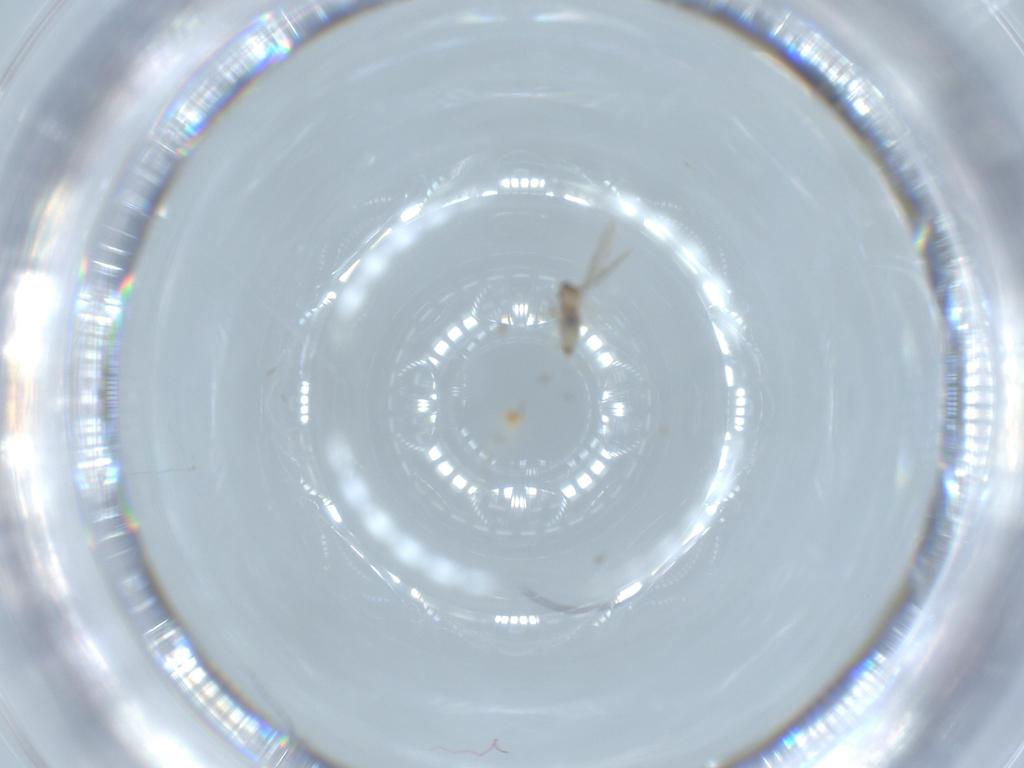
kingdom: Animalia
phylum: Arthropoda
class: Insecta
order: Diptera
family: Cecidomyiidae
